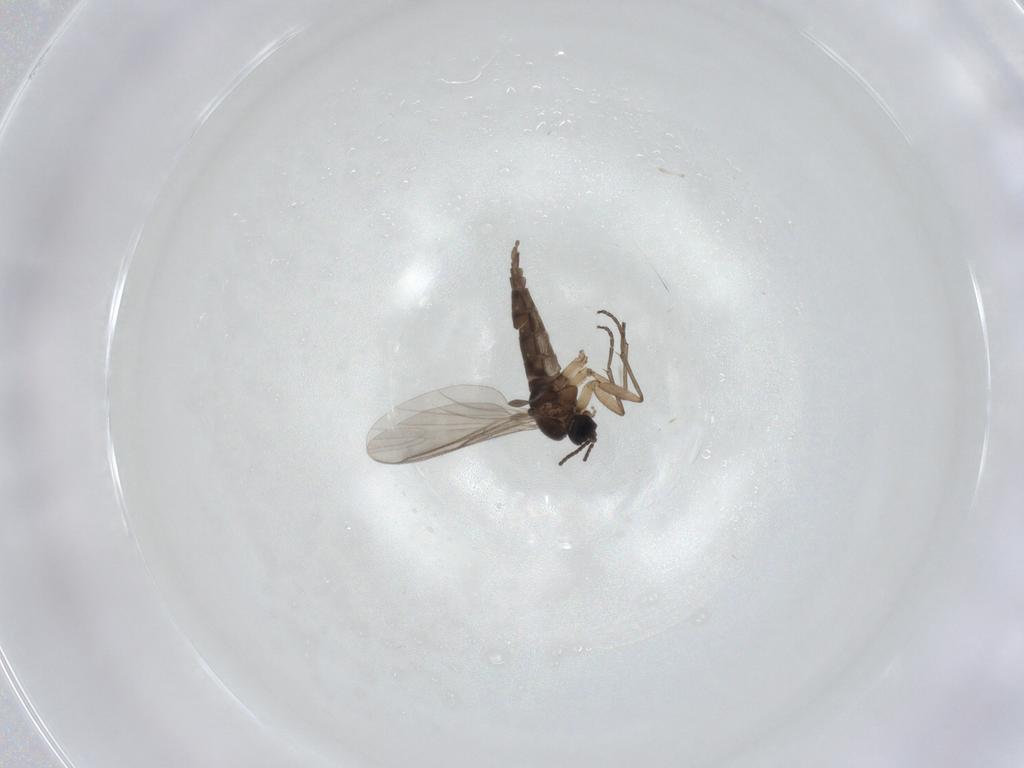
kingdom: Animalia
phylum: Arthropoda
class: Insecta
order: Diptera
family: Sciaridae
